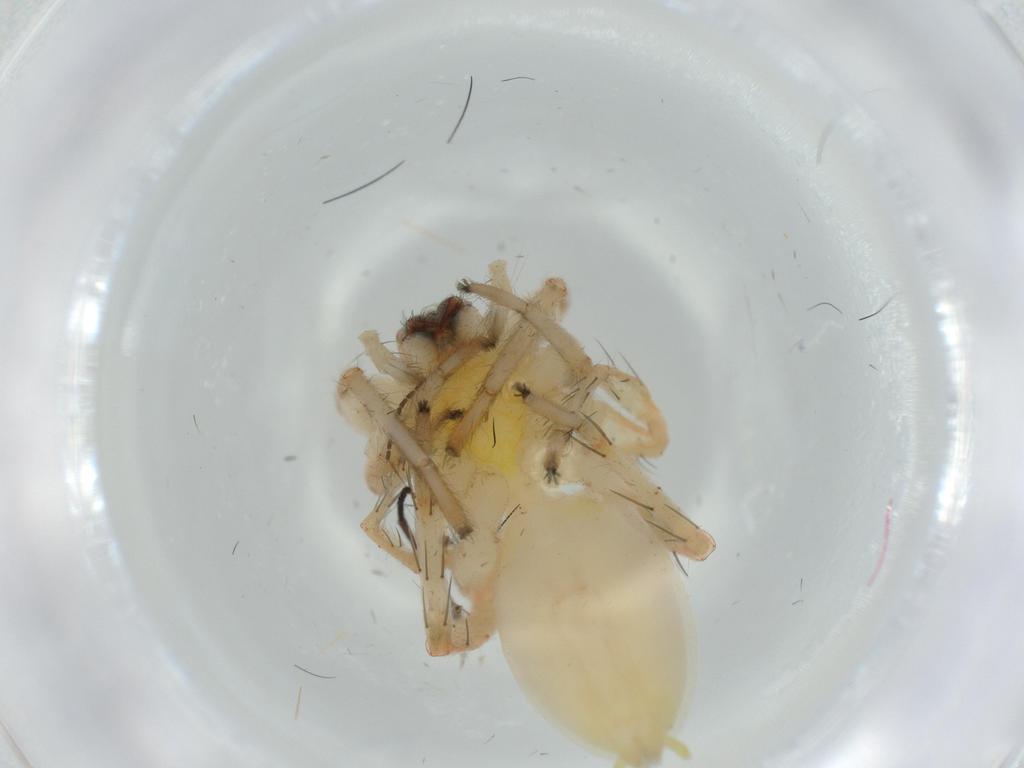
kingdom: Animalia
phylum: Arthropoda
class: Arachnida
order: Araneae
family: Anyphaenidae
